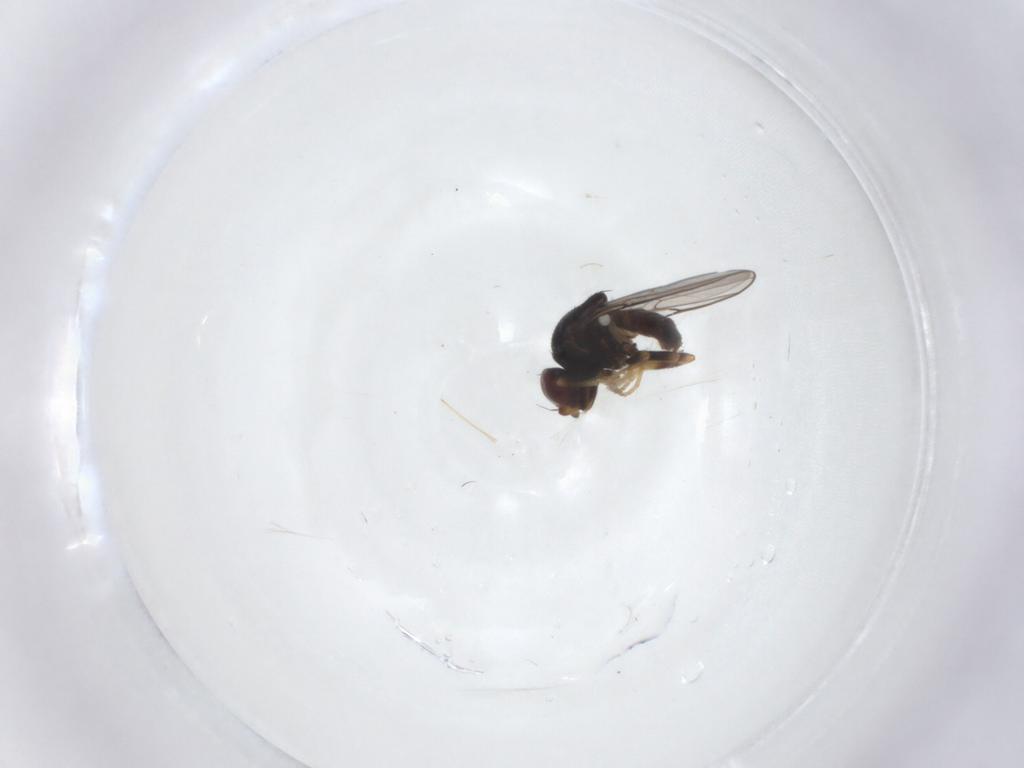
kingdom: Animalia
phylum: Arthropoda
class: Insecta
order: Diptera
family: Chloropidae
